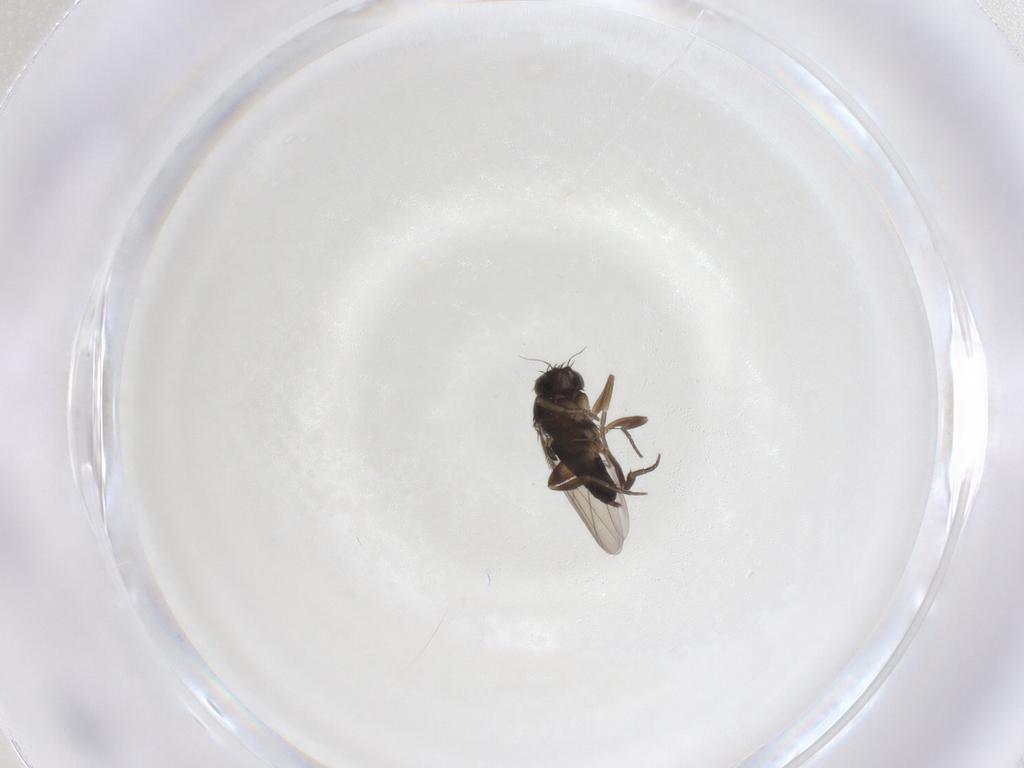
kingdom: Animalia
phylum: Arthropoda
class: Insecta
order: Diptera
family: Phoridae
